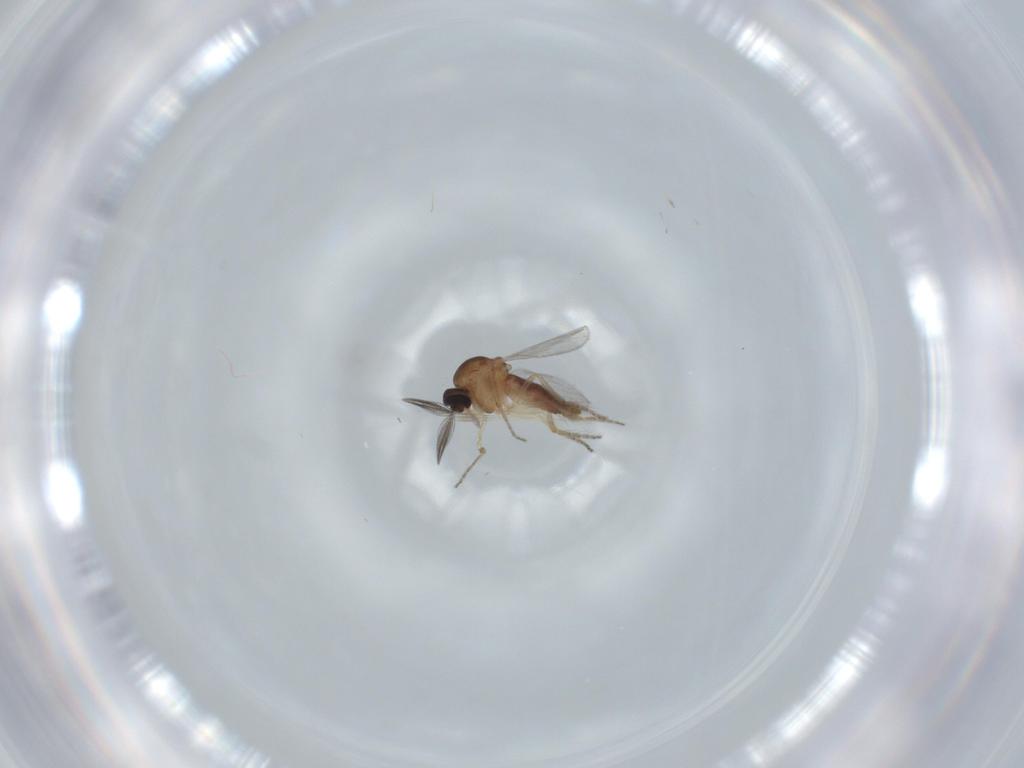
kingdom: Animalia
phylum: Arthropoda
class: Insecta
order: Diptera
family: Ceratopogonidae
